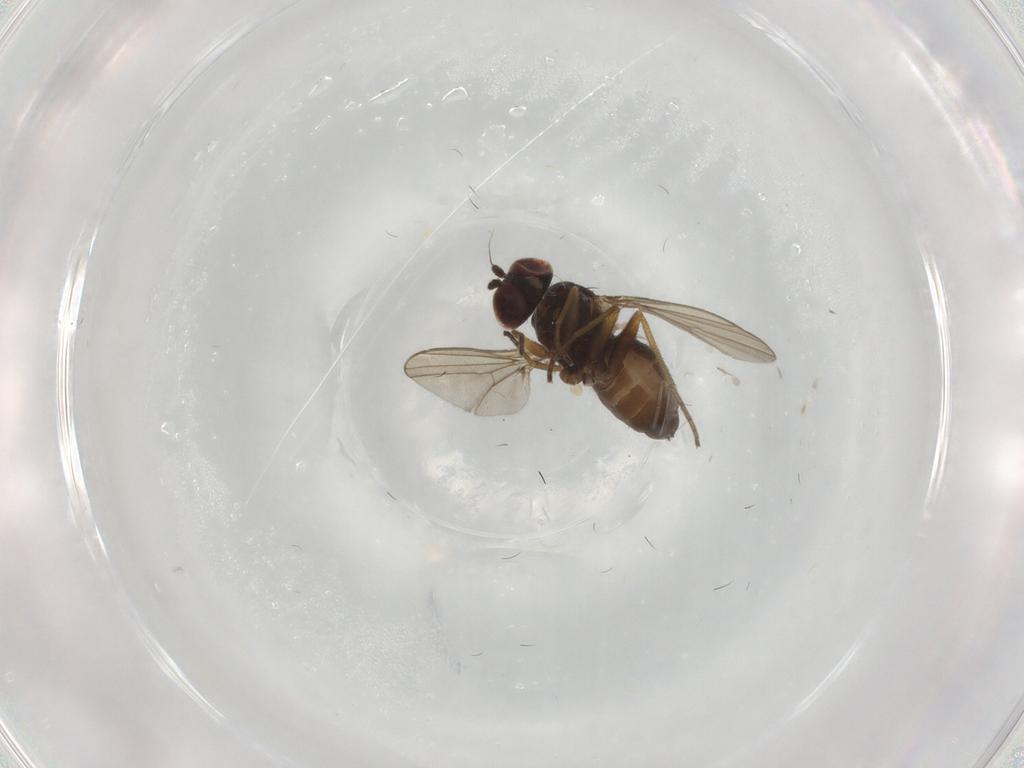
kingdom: Animalia
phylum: Arthropoda
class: Insecta
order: Diptera
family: Dolichopodidae
